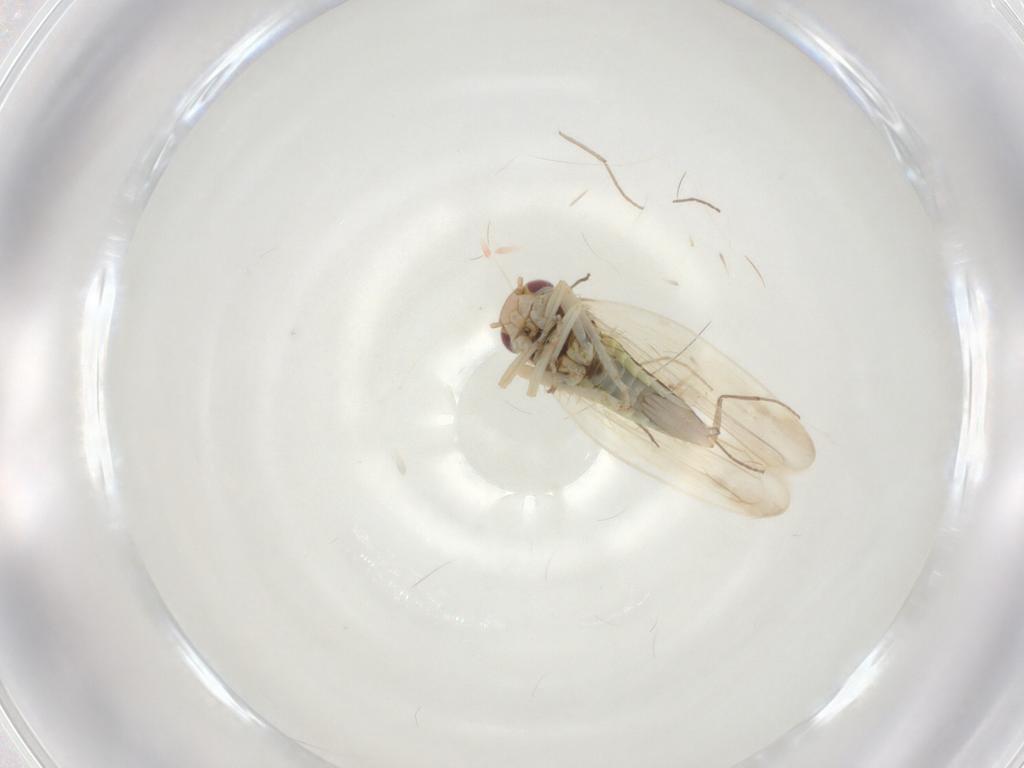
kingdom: Animalia
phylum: Arthropoda
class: Insecta
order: Hemiptera
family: Cicadellidae
